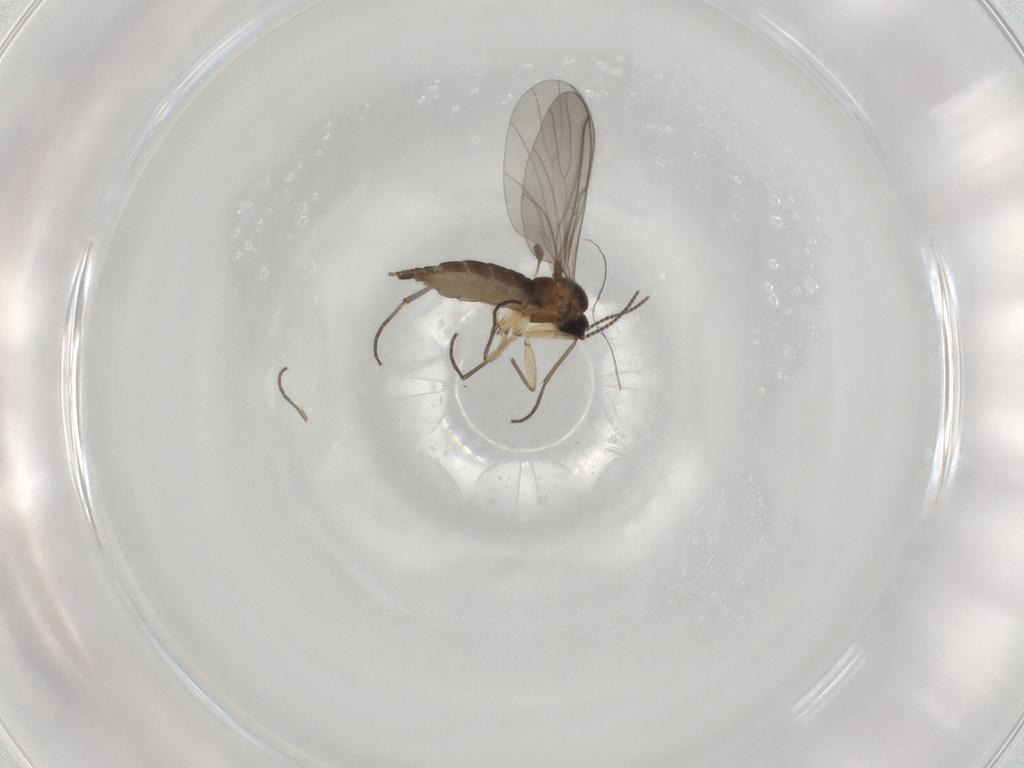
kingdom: Animalia
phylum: Arthropoda
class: Insecta
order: Diptera
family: Sciaridae
